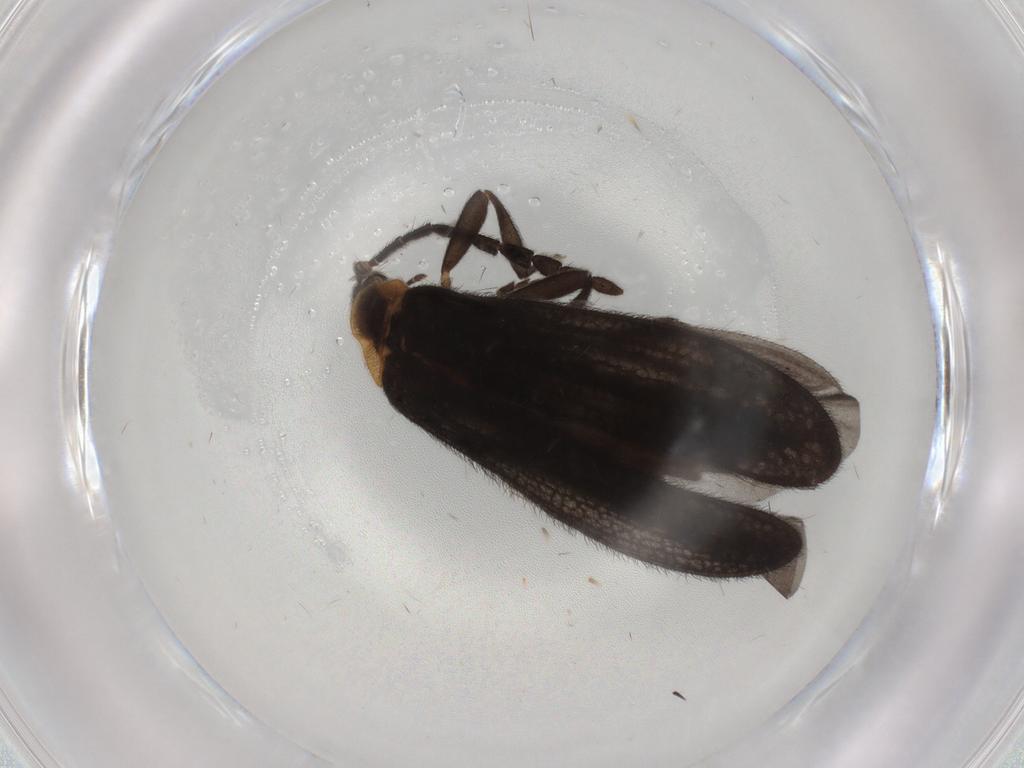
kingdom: Animalia
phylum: Arthropoda
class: Insecta
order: Coleoptera
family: Lycidae
